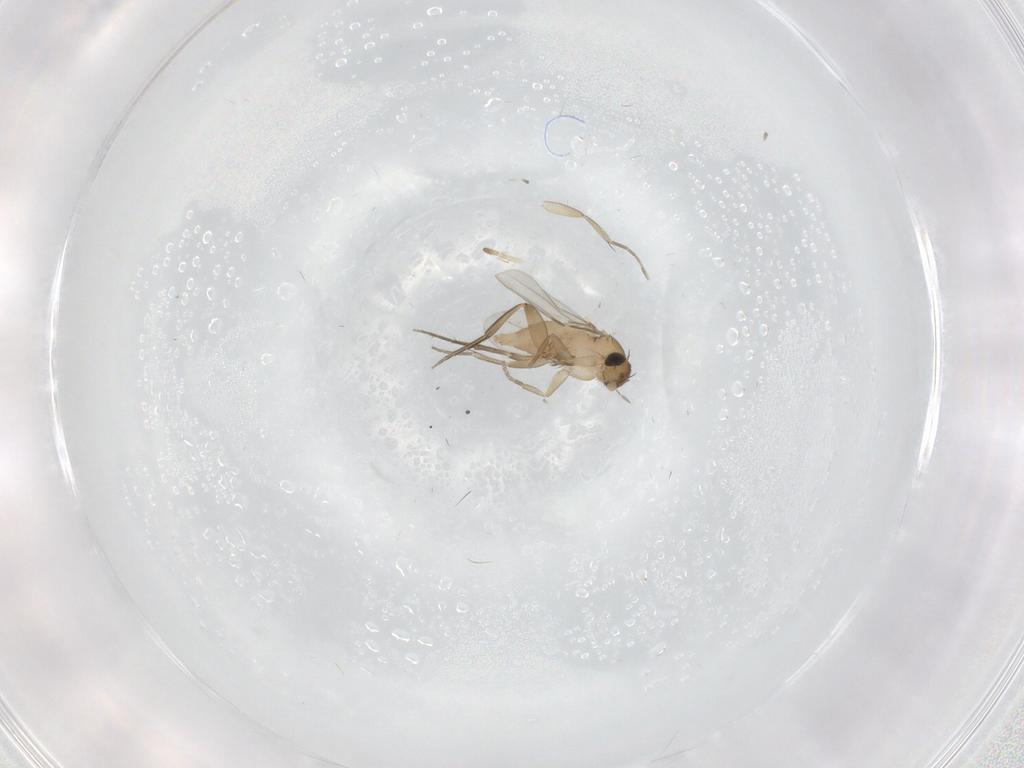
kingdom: Animalia
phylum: Arthropoda
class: Insecta
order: Diptera
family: Phoridae
